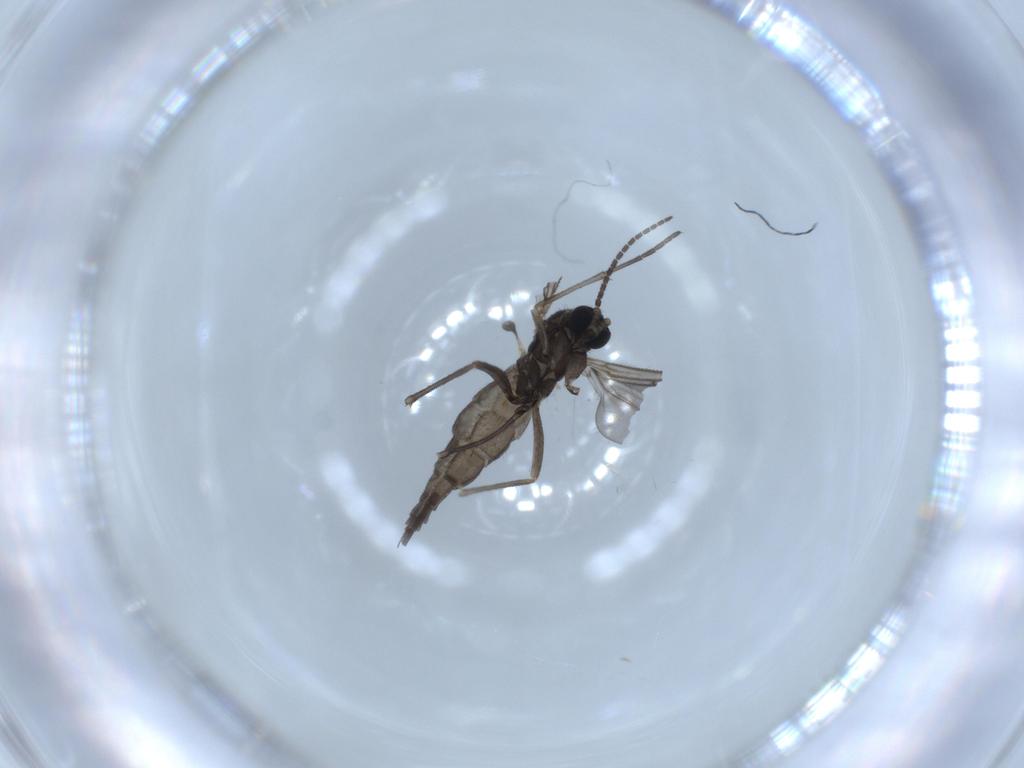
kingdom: Animalia
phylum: Arthropoda
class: Insecta
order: Diptera
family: Sciaridae
